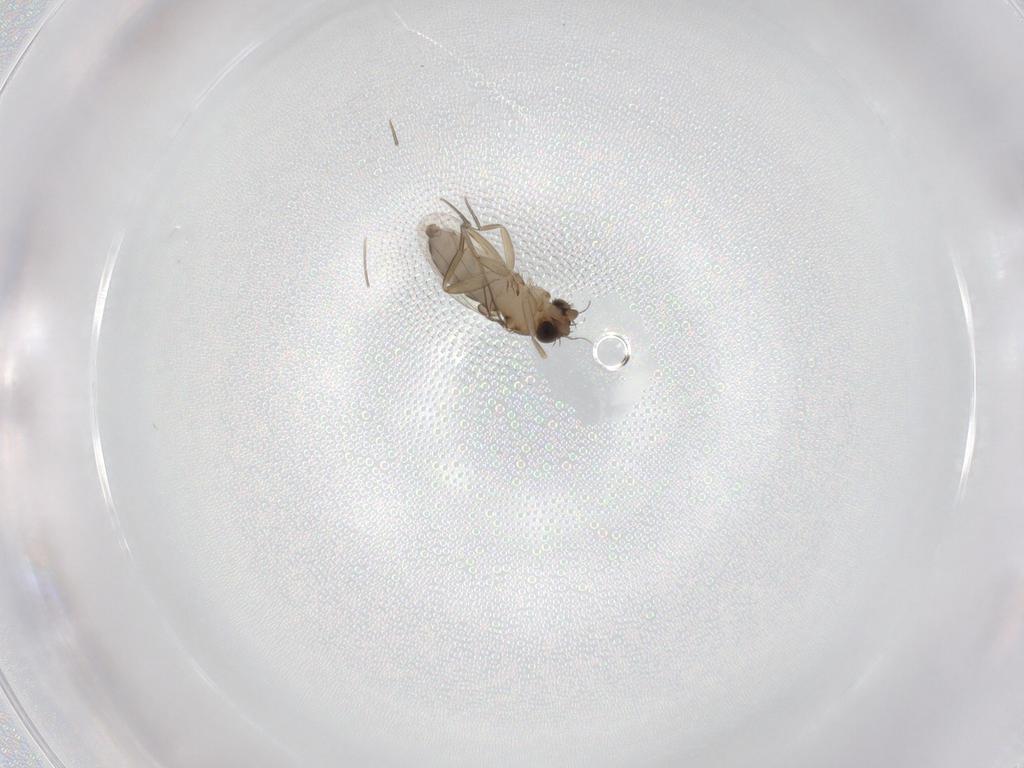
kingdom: Animalia
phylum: Arthropoda
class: Insecta
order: Diptera
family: Phoridae
